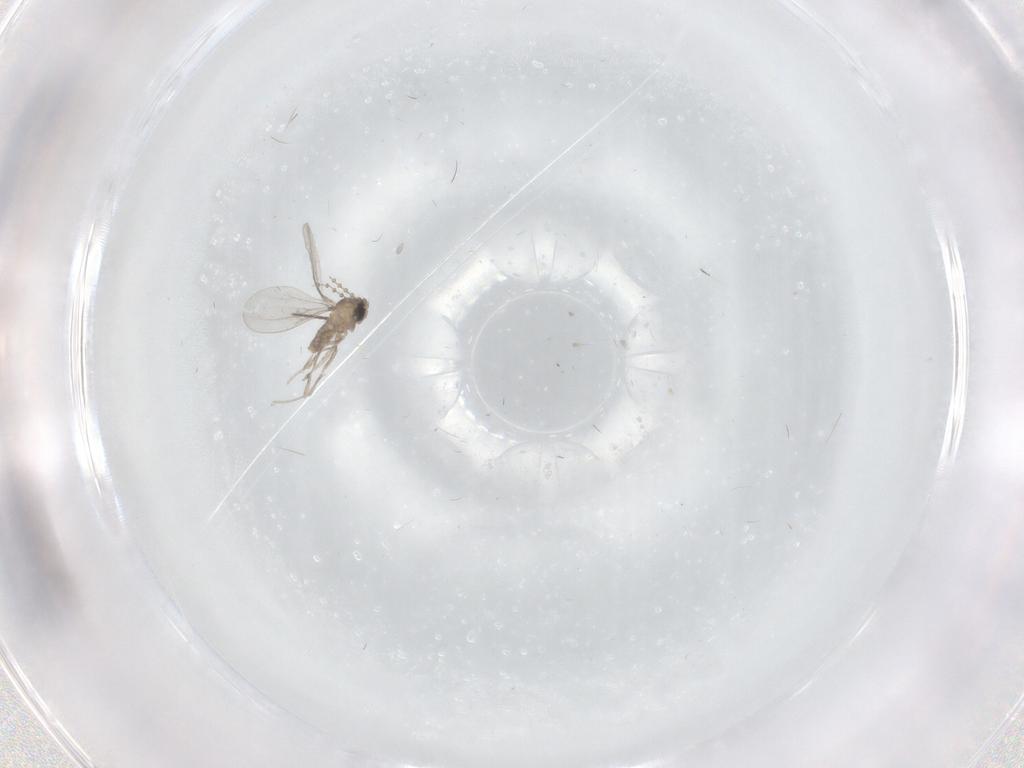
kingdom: Animalia
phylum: Arthropoda
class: Insecta
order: Diptera
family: Cecidomyiidae
